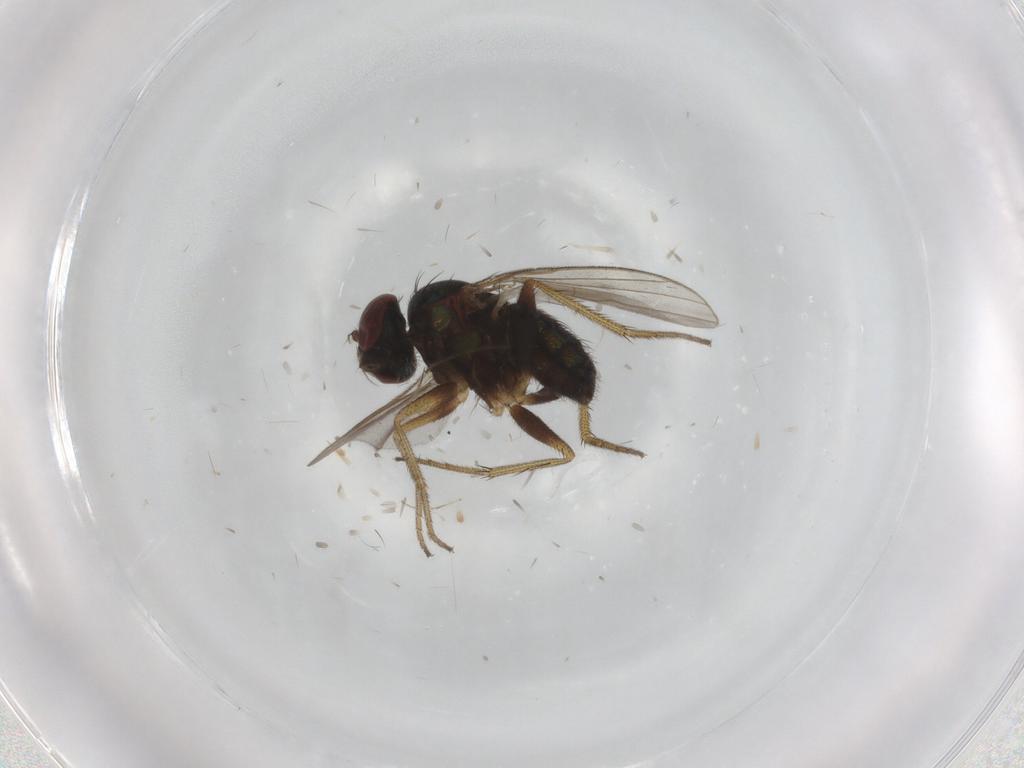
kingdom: Animalia
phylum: Arthropoda
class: Insecta
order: Diptera
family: Dolichopodidae
